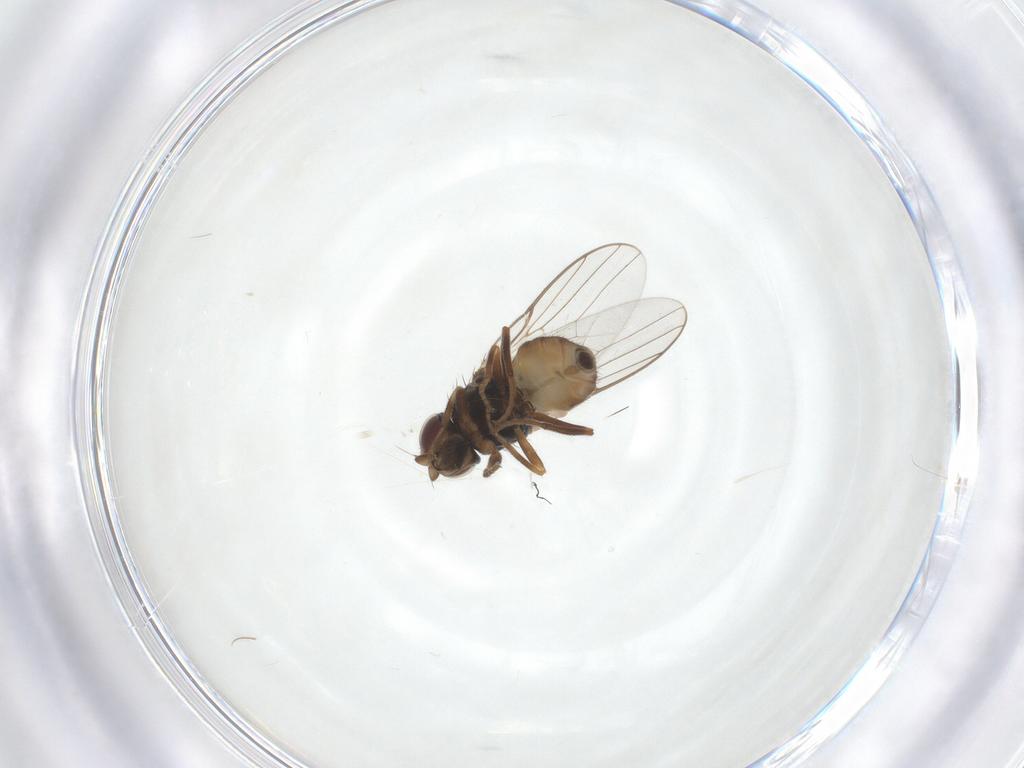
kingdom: Animalia
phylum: Arthropoda
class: Insecta
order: Diptera
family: Chloropidae
